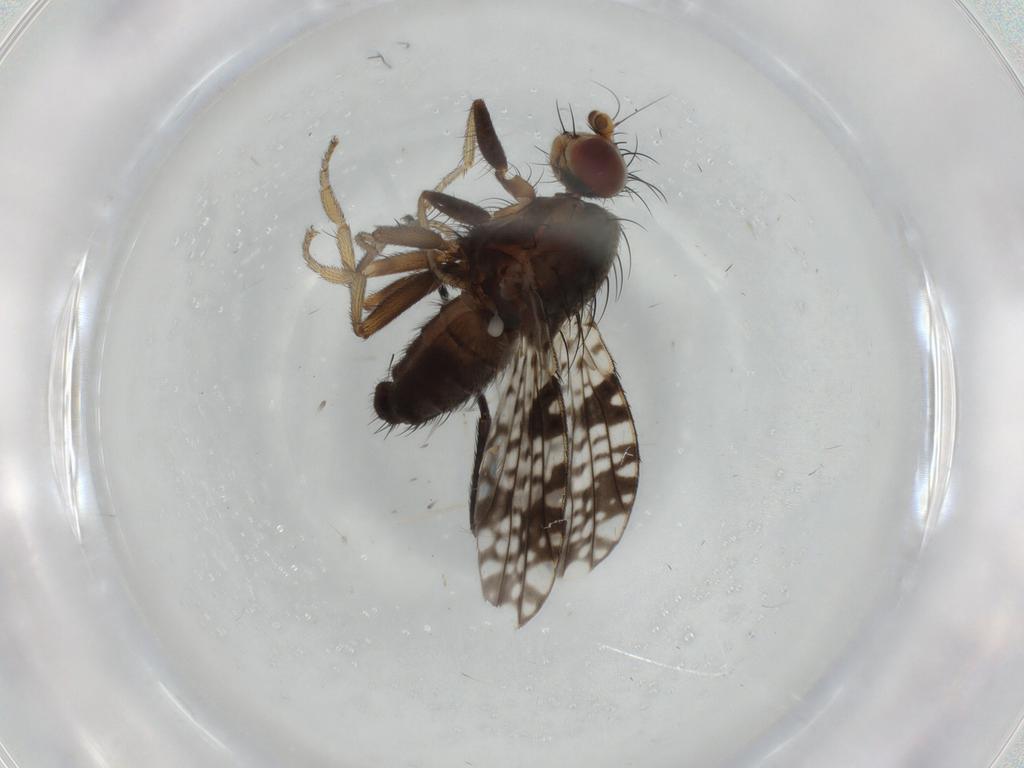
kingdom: Animalia
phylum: Arthropoda
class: Insecta
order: Diptera
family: Tephritidae
